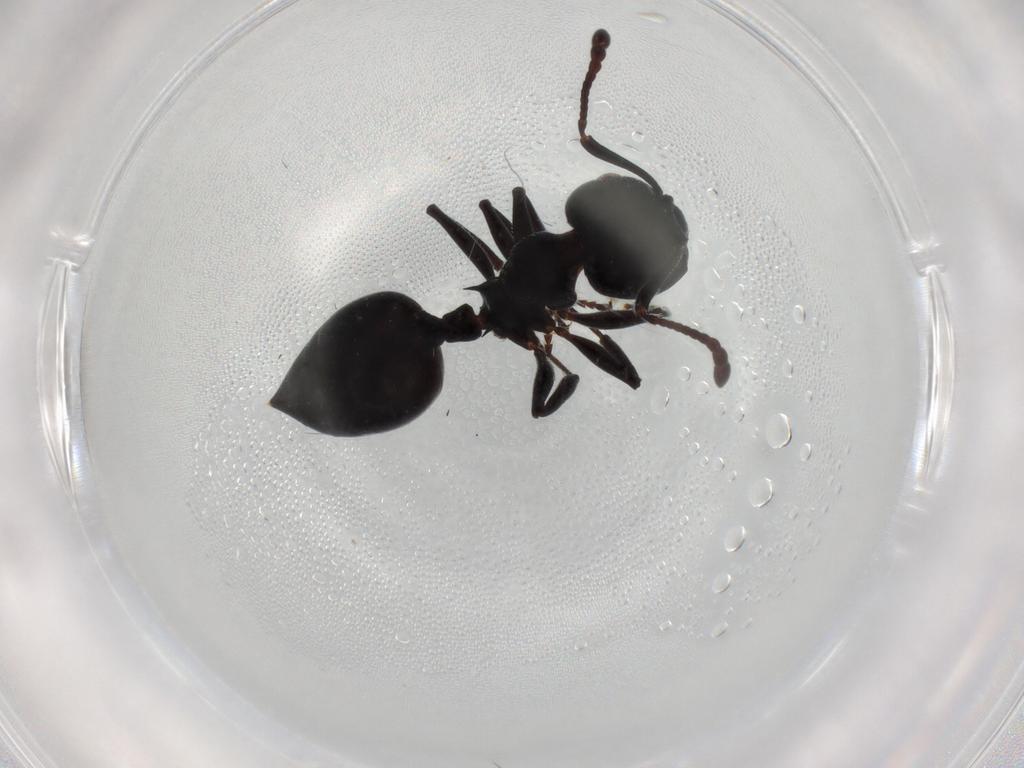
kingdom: Animalia
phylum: Arthropoda
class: Insecta
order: Hymenoptera
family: Formicidae
